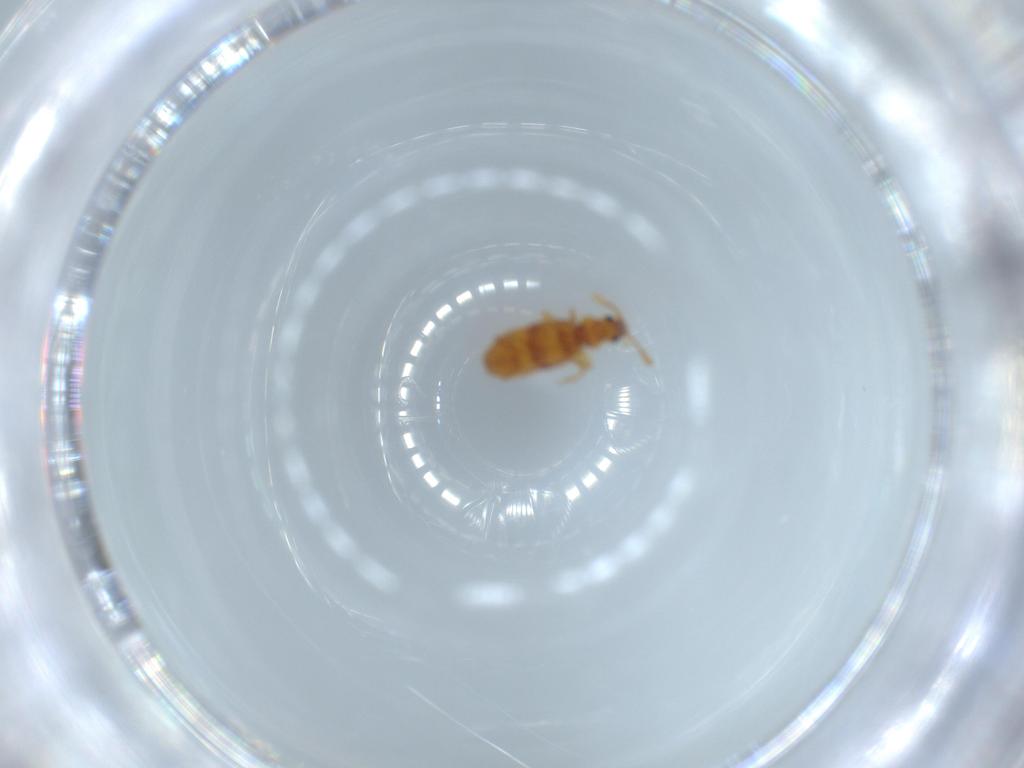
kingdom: Animalia
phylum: Arthropoda
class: Insecta
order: Coleoptera
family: Staphylinidae
